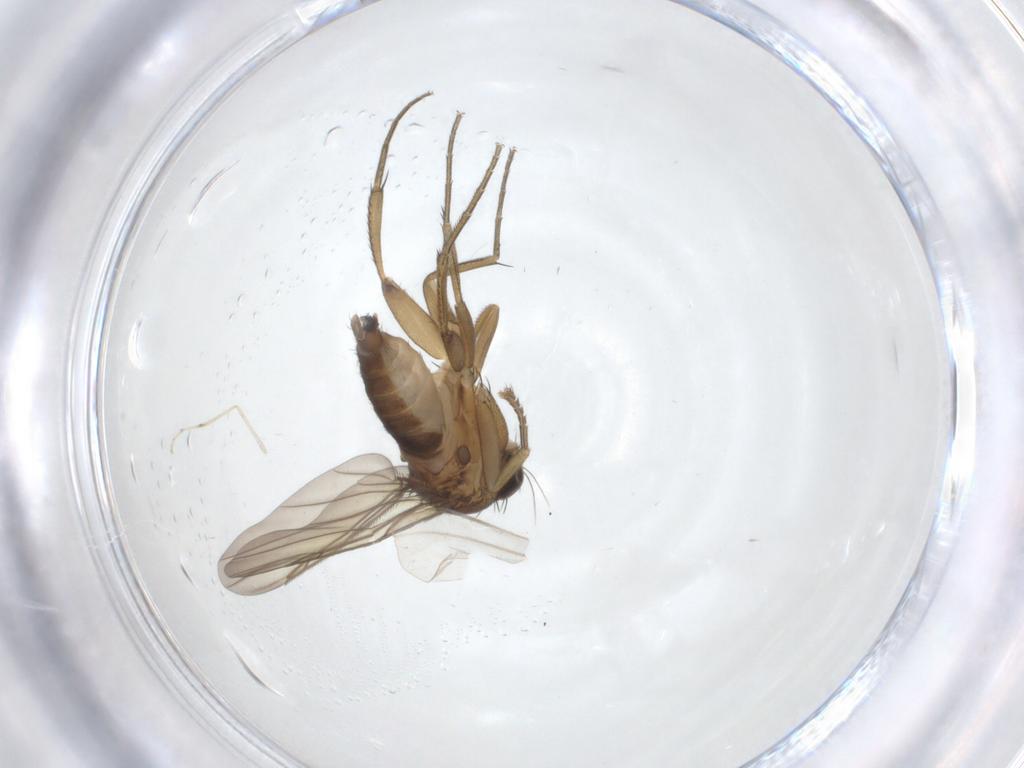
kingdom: Animalia
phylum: Arthropoda
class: Insecta
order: Diptera
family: Phoridae
